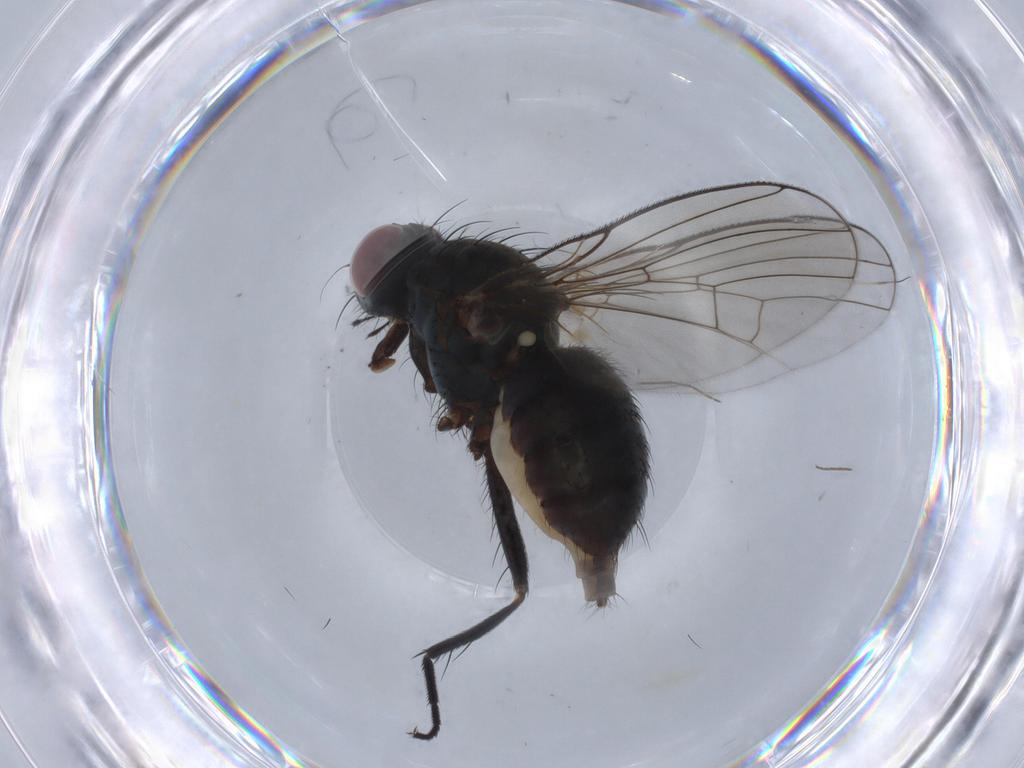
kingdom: Animalia
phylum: Arthropoda
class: Insecta
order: Diptera
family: Muscidae
